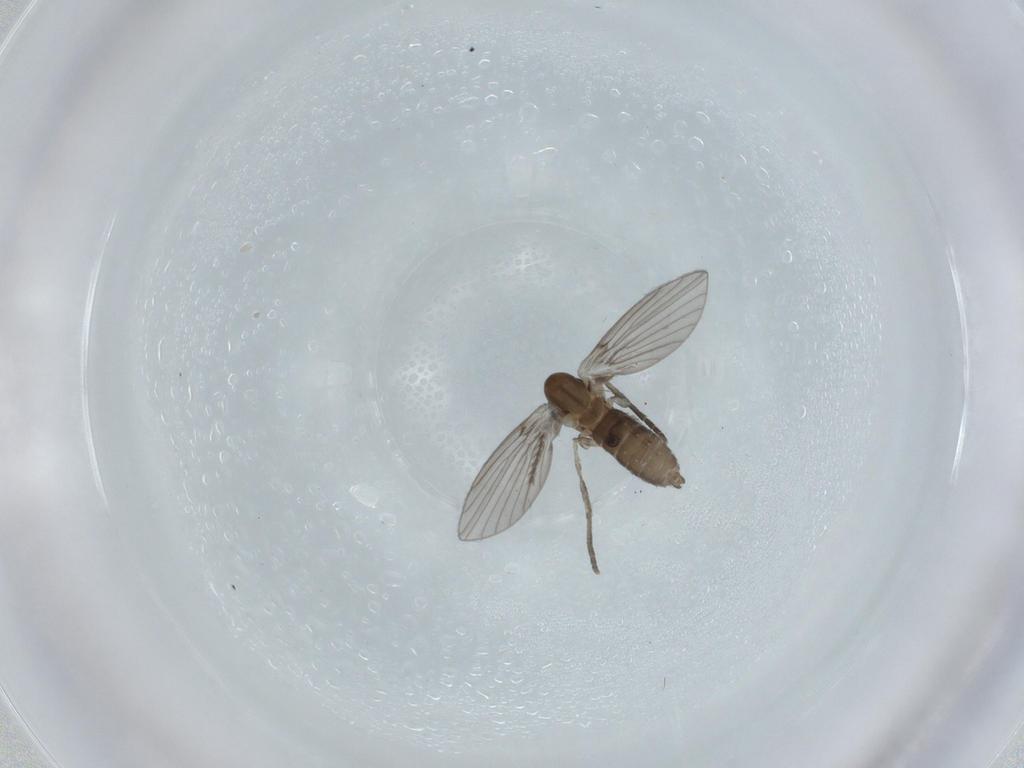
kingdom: Animalia
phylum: Arthropoda
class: Insecta
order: Diptera
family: Psychodidae
